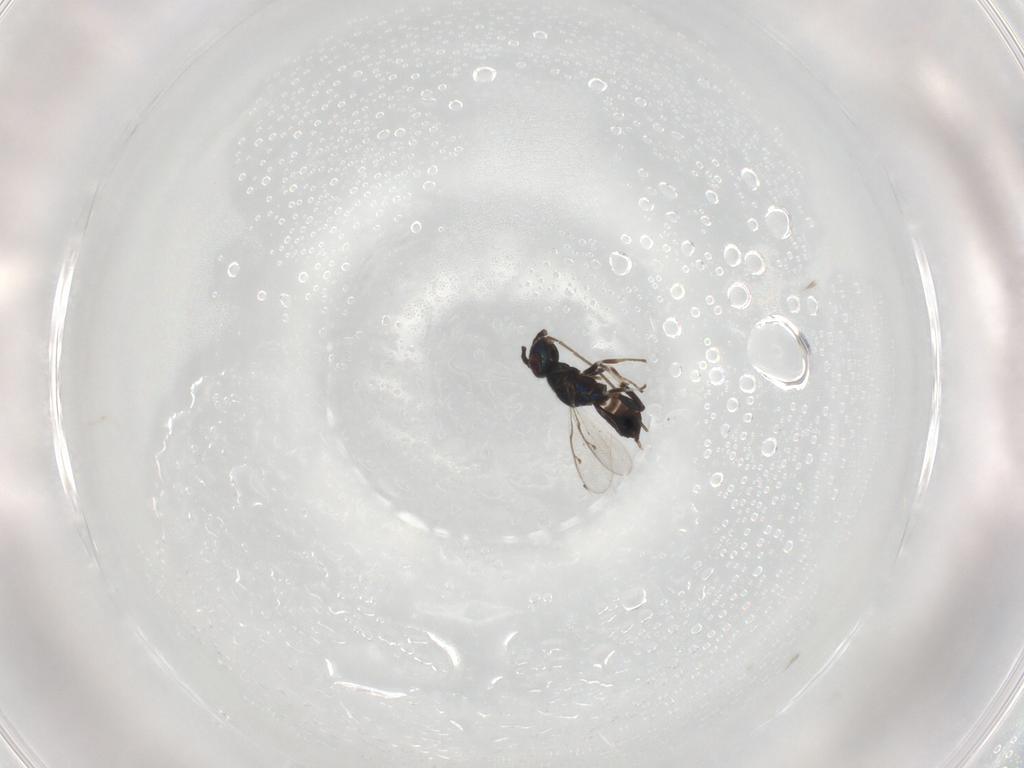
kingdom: Animalia
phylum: Arthropoda
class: Insecta
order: Hymenoptera
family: Eupelmidae
